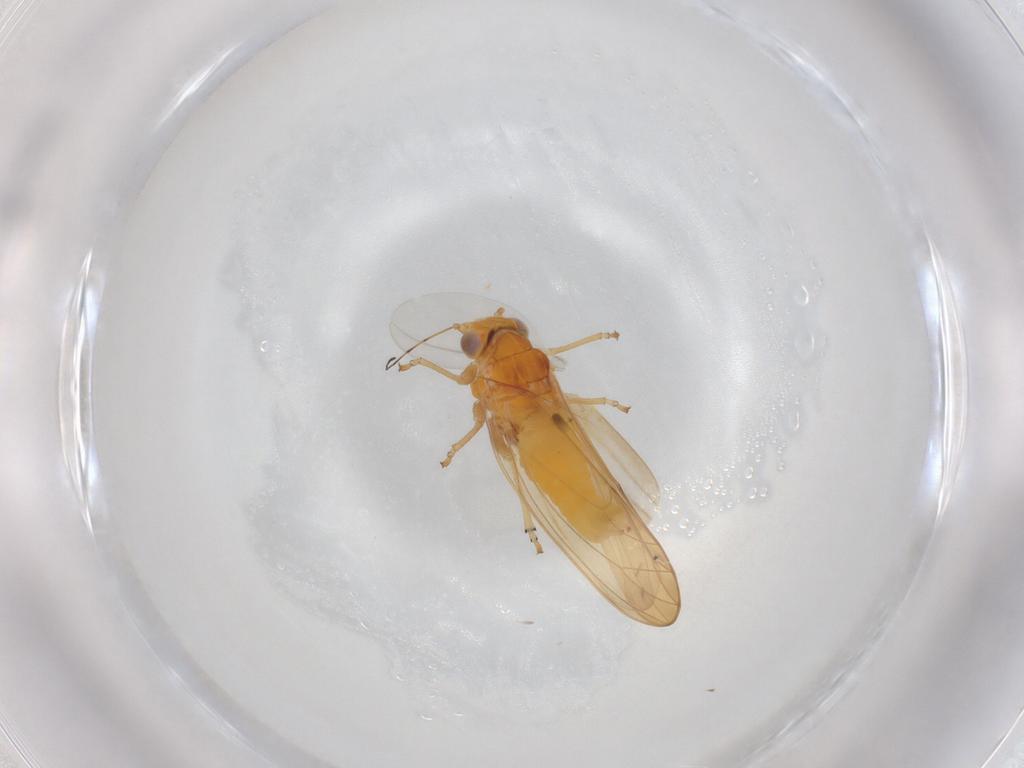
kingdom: Animalia
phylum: Arthropoda
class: Insecta
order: Hemiptera
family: Cicadellidae
